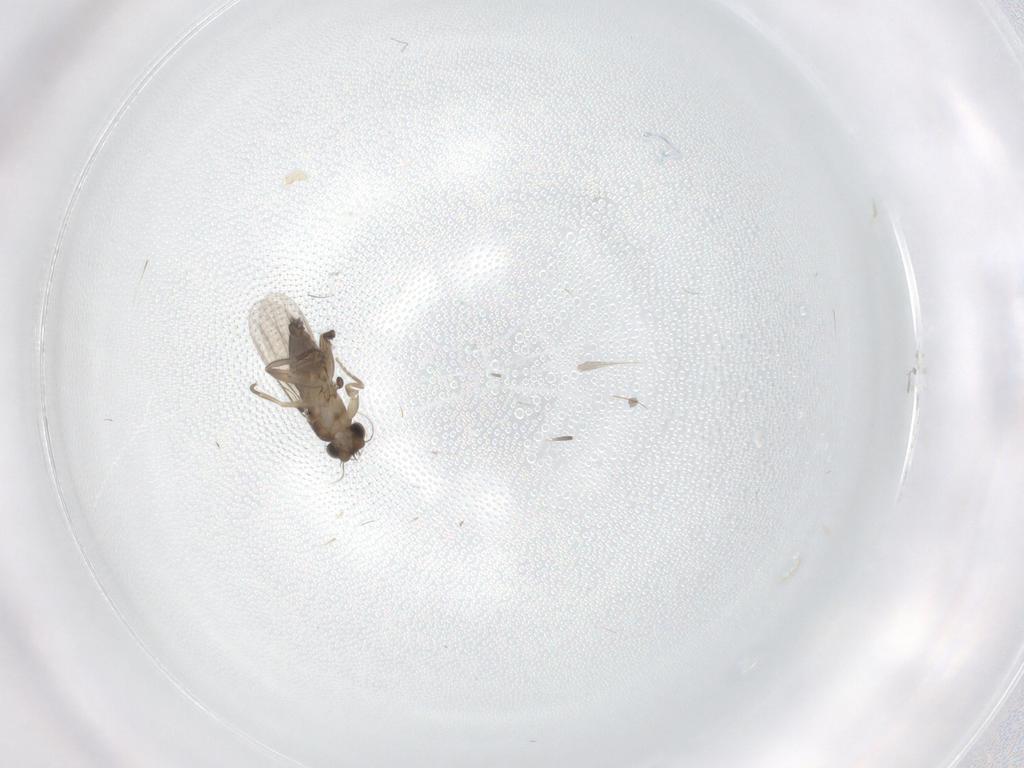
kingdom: Animalia
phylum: Arthropoda
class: Insecta
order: Diptera
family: Phoridae
